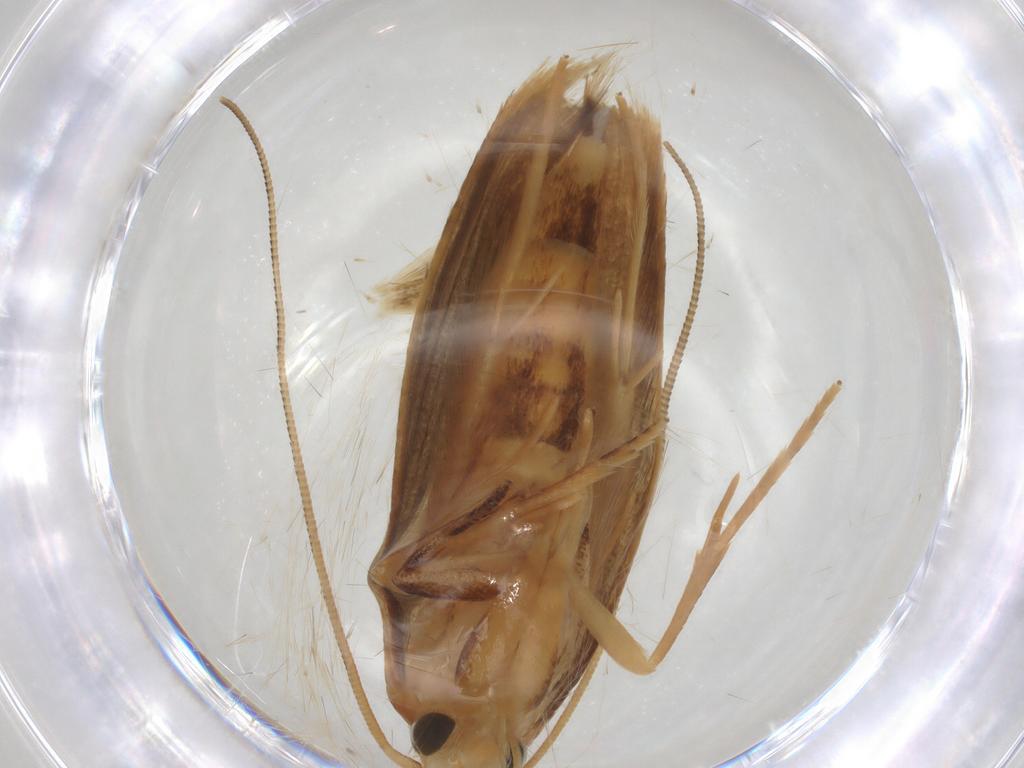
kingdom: Animalia
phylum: Arthropoda
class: Insecta
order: Lepidoptera
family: Tineidae
